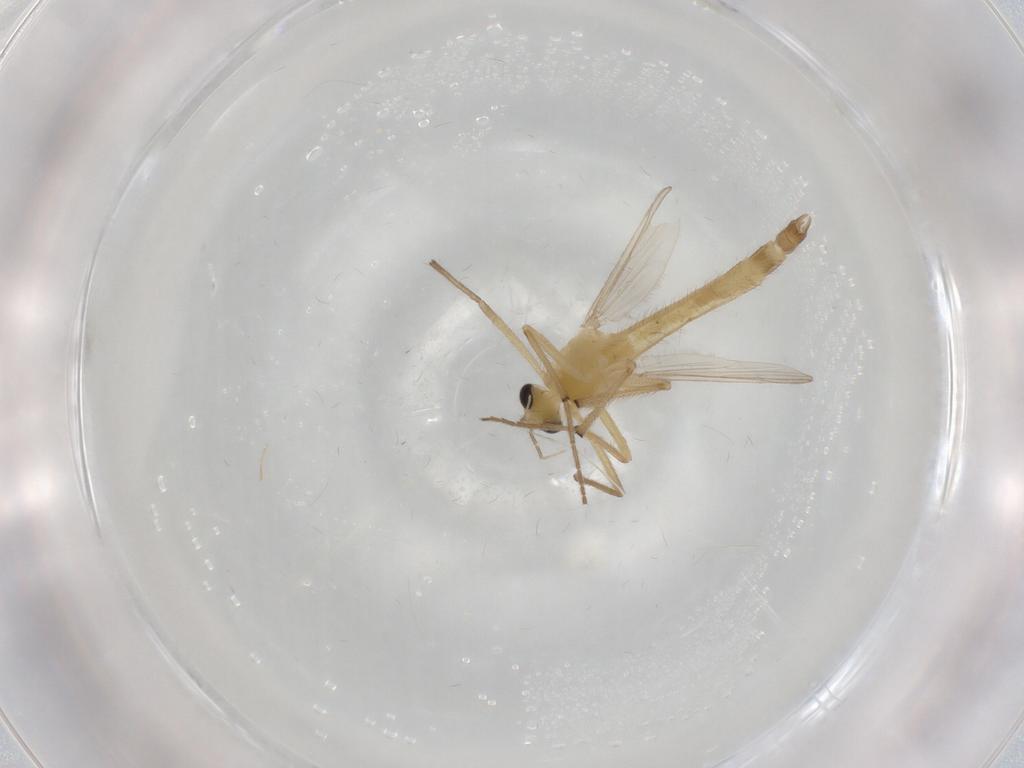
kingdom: Animalia
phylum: Arthropoda
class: Insecta
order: Diptera
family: Chironomidae
